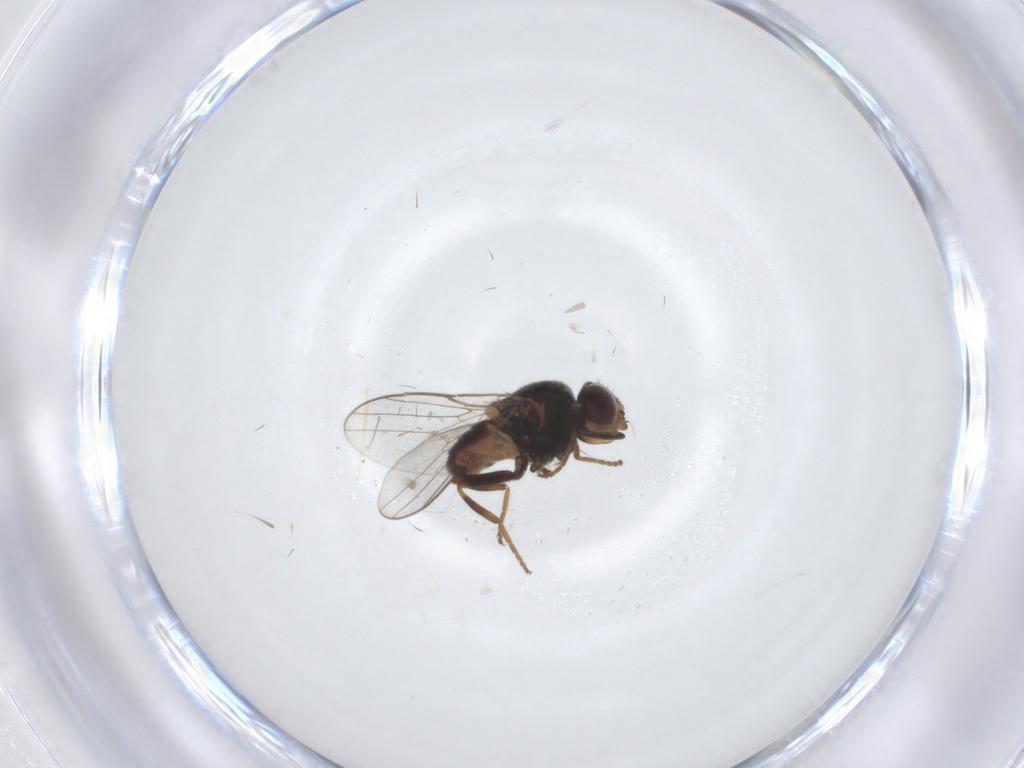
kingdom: Animalia
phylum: Arthropoda
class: Insecta
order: Diptera
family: Chloropidae
